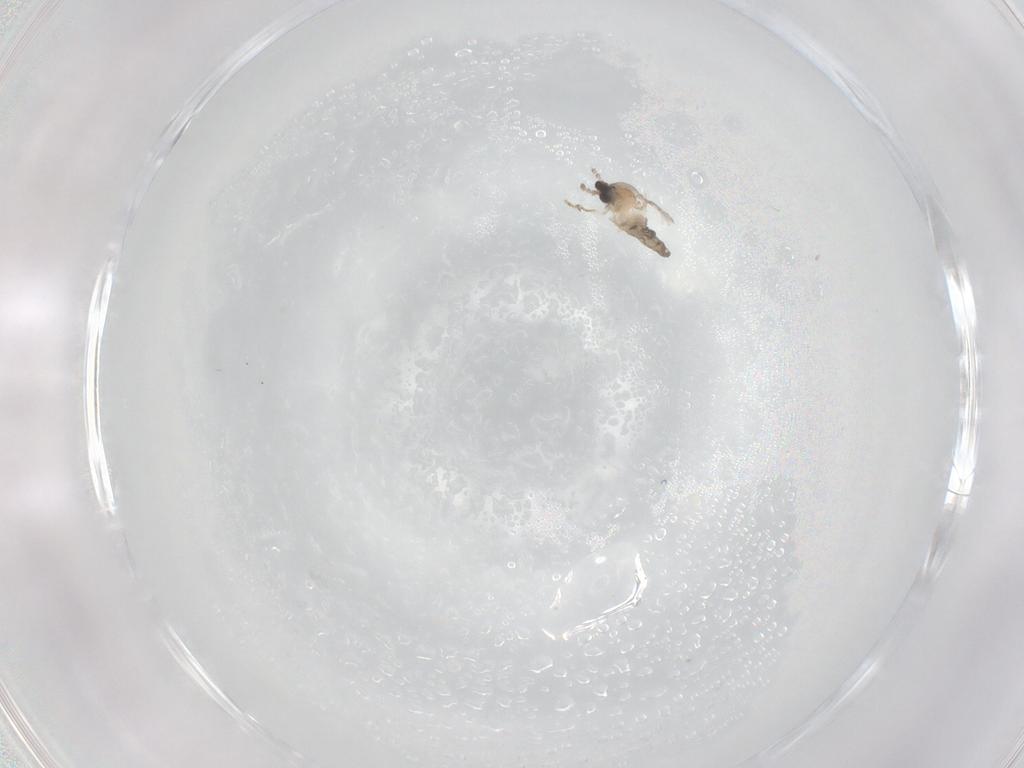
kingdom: Animalia
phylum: Arthropoda
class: Insecta
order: Diptera
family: Cecidomyiidae
